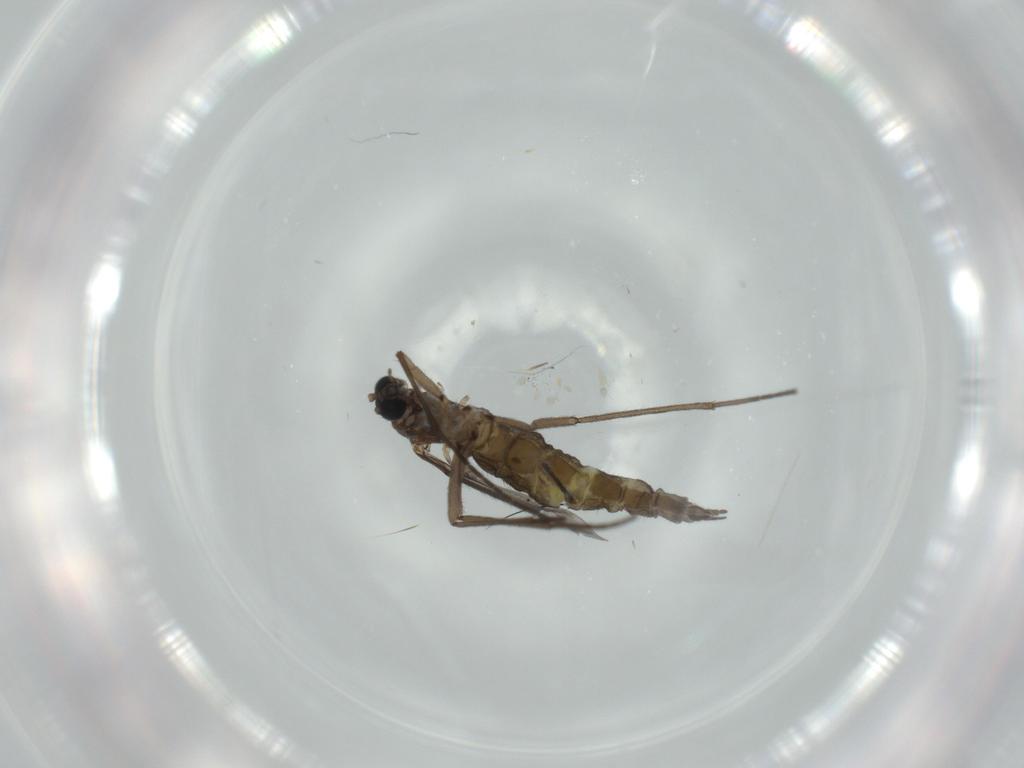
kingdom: Animalia
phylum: Arthropoda
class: Insecta
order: Diptera
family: Sciaridae
